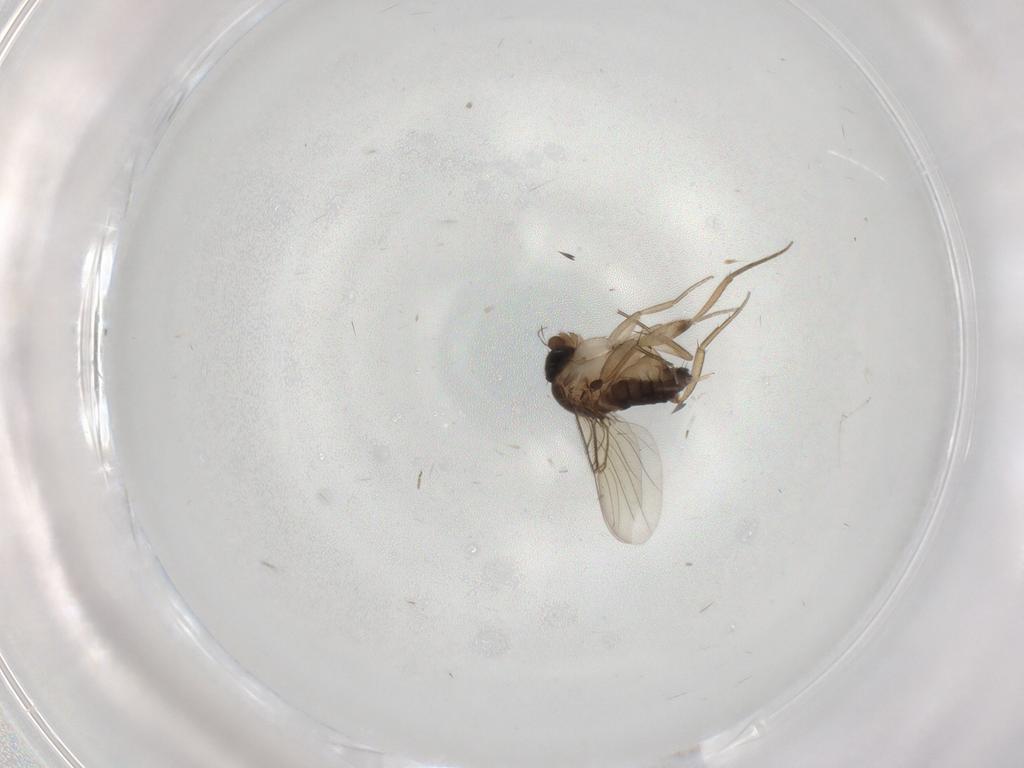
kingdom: Animalia
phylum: Arthropoda
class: Insecta
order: Diptera
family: Phoridae
